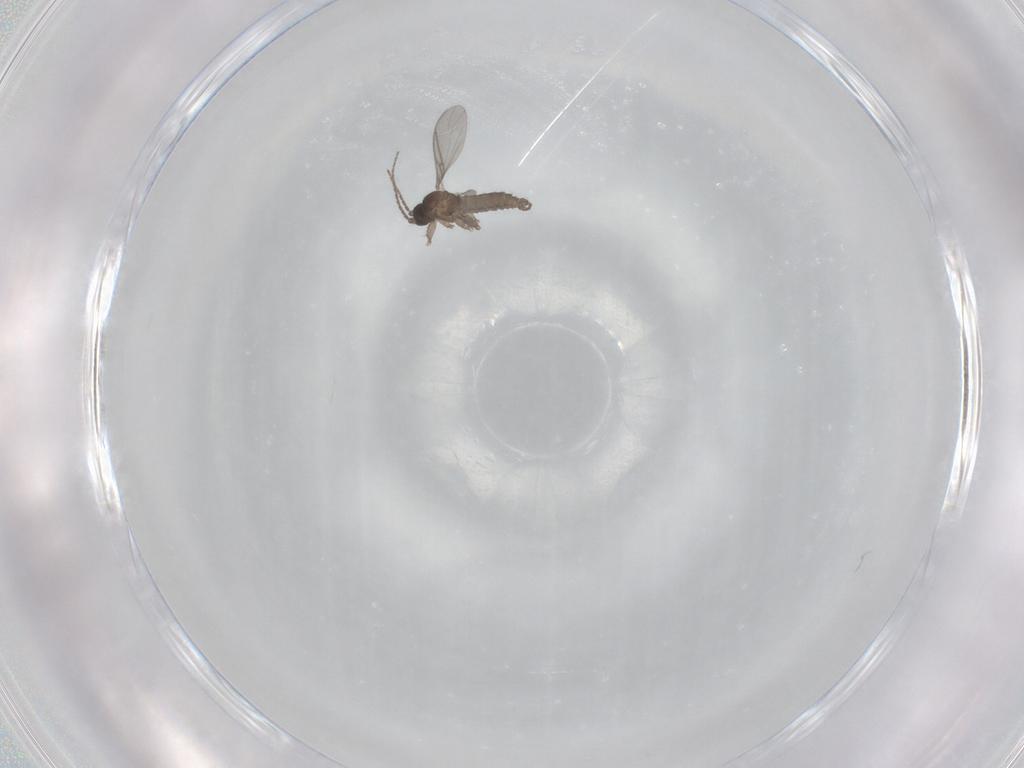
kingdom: Animalia
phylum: Arthropoda
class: Insecta
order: Diptera
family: Sciaridae
